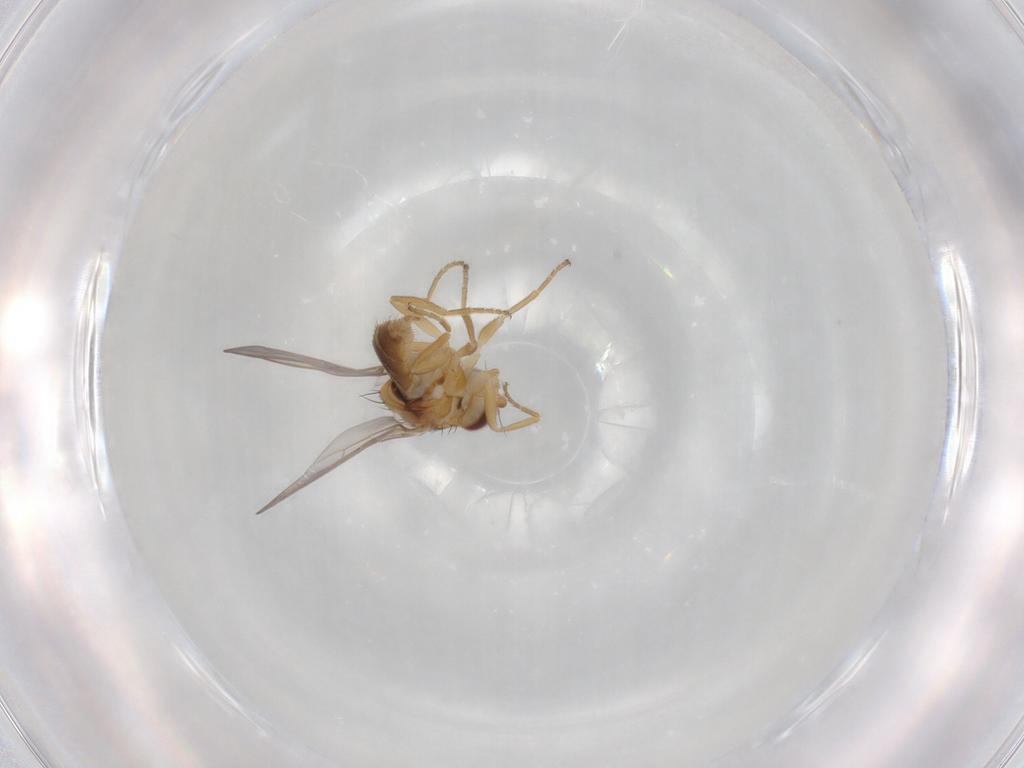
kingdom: Animalia
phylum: Arthropoda
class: Insecta
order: Diptera
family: Chloropidae
